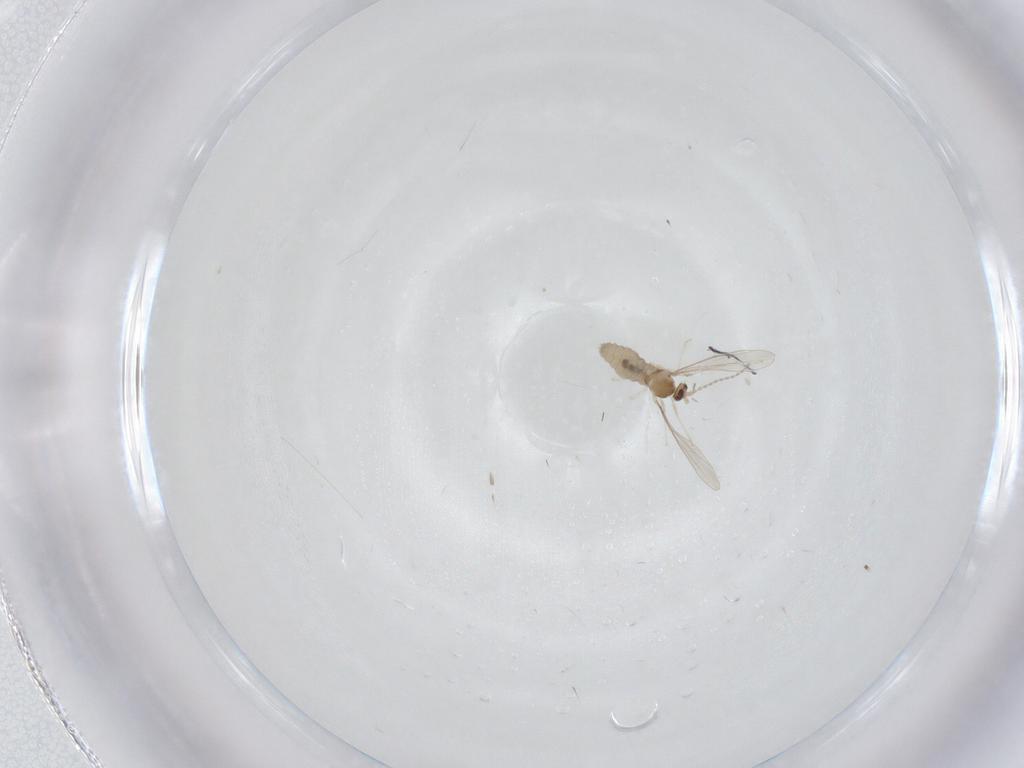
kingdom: Animalia
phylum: Arthropoda
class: Insecta
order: Diptera
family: Cecidomyiidae
